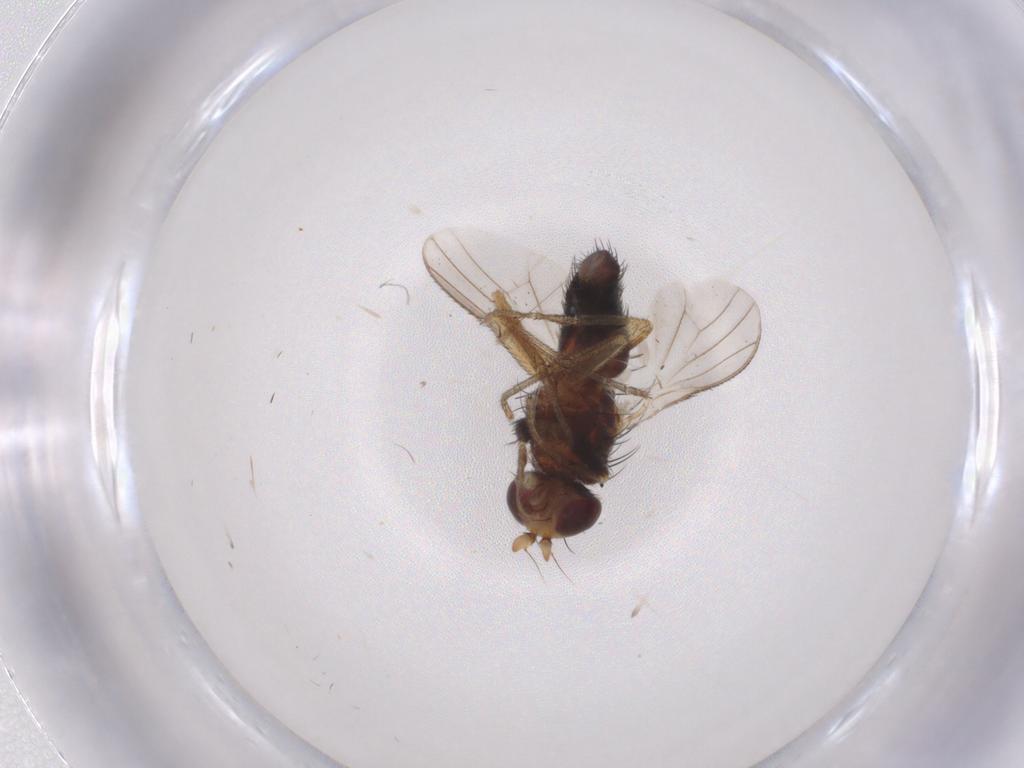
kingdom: Animalia
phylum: Arthropoda
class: Insecta
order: Diptera
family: Heleomyzidae
